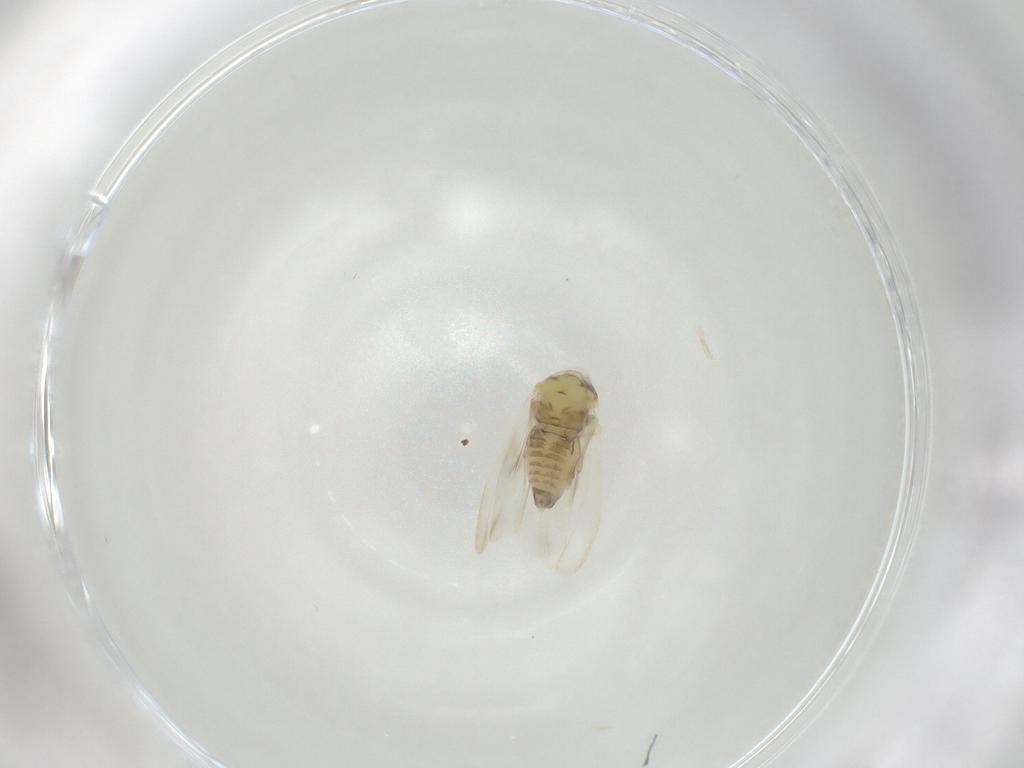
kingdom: Animalia
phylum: Arthropoda
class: Insecta
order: Hemiptera
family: Aleyrodidae
